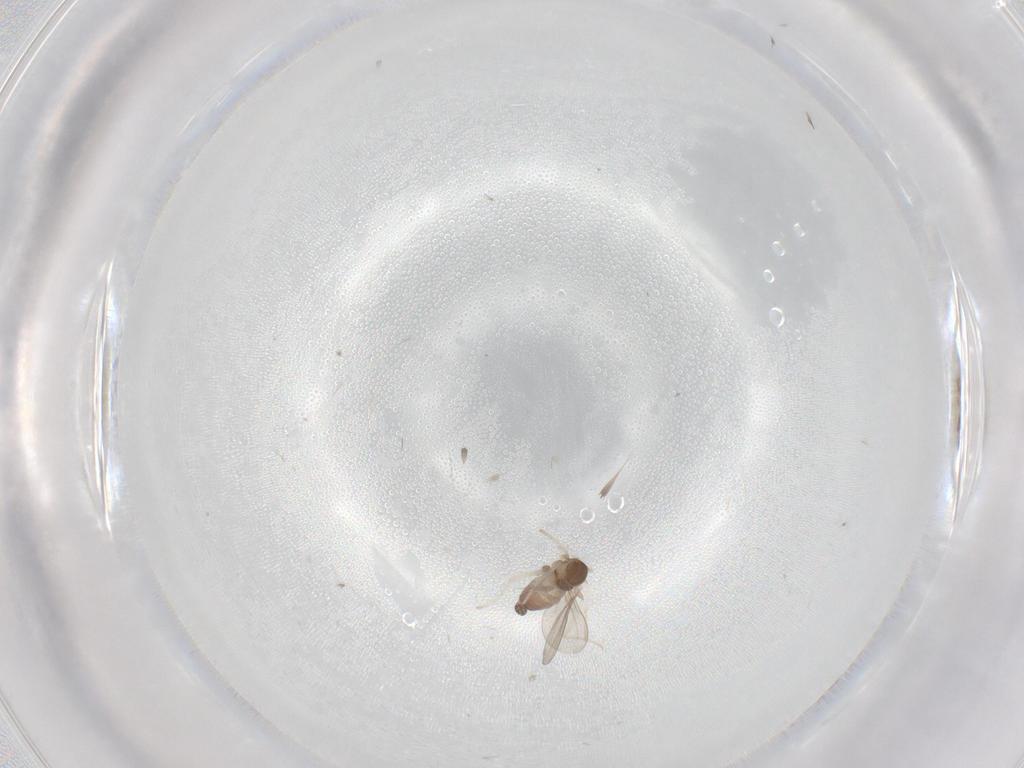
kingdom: Animalia
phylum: Arthropoda
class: Insecta
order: Diptera
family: Cecidomyiidae
